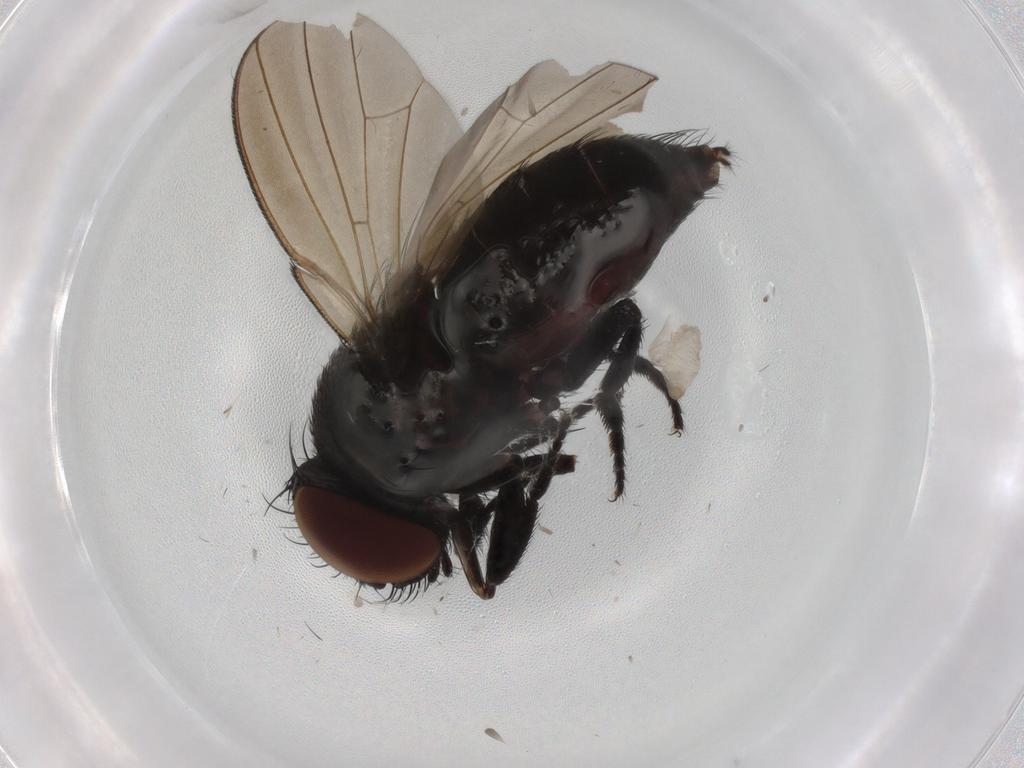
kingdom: Animalia
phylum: Arthropoda
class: Insecta
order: Diptera
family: Milichiidae
